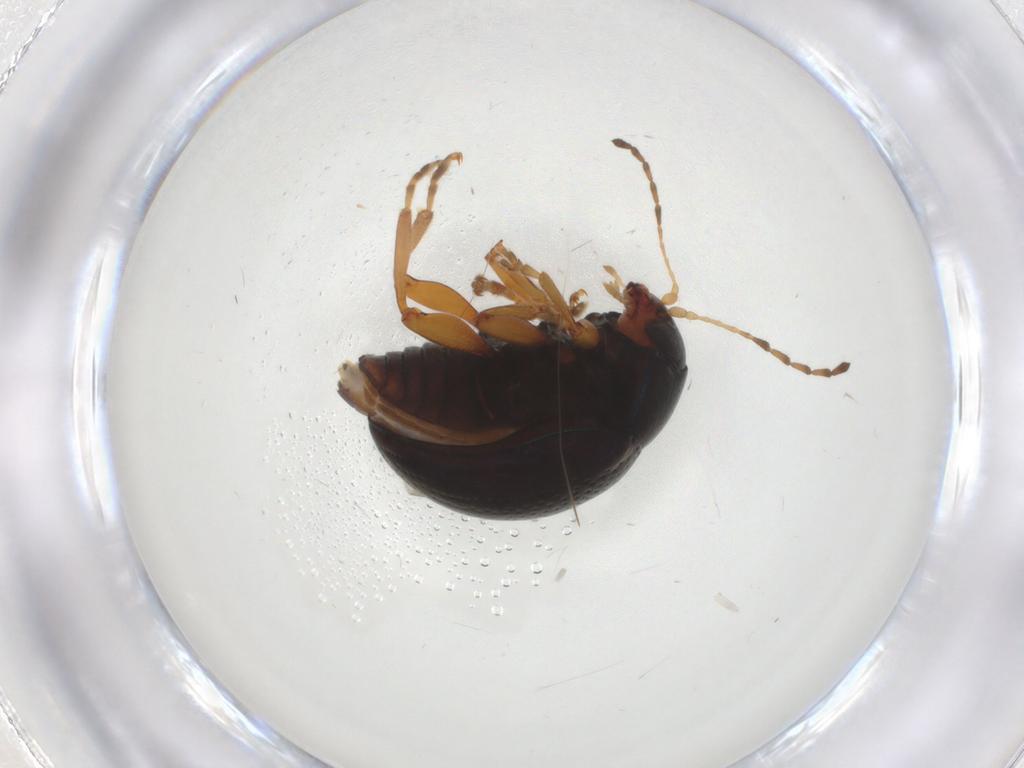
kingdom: Animalia
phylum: Arthropoda
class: Insecta
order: Coleoptera
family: Chrysomelidae
